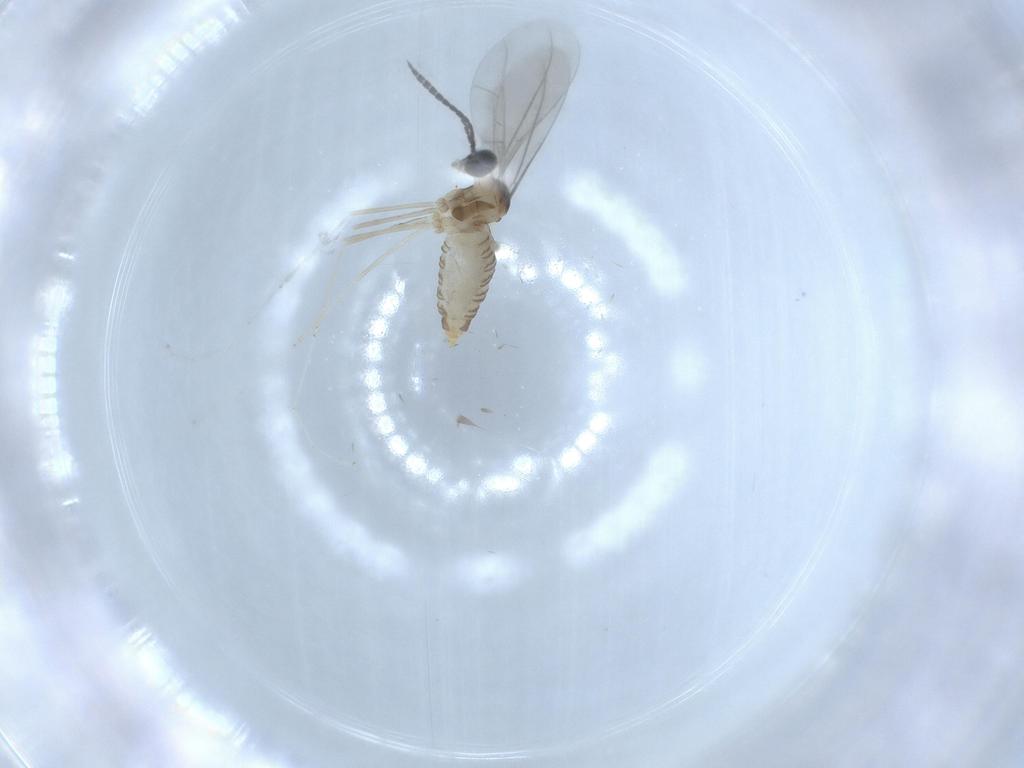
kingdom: Animalia
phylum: Arthropoda
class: Insecta
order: Diptera
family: Cecidomyiidae
